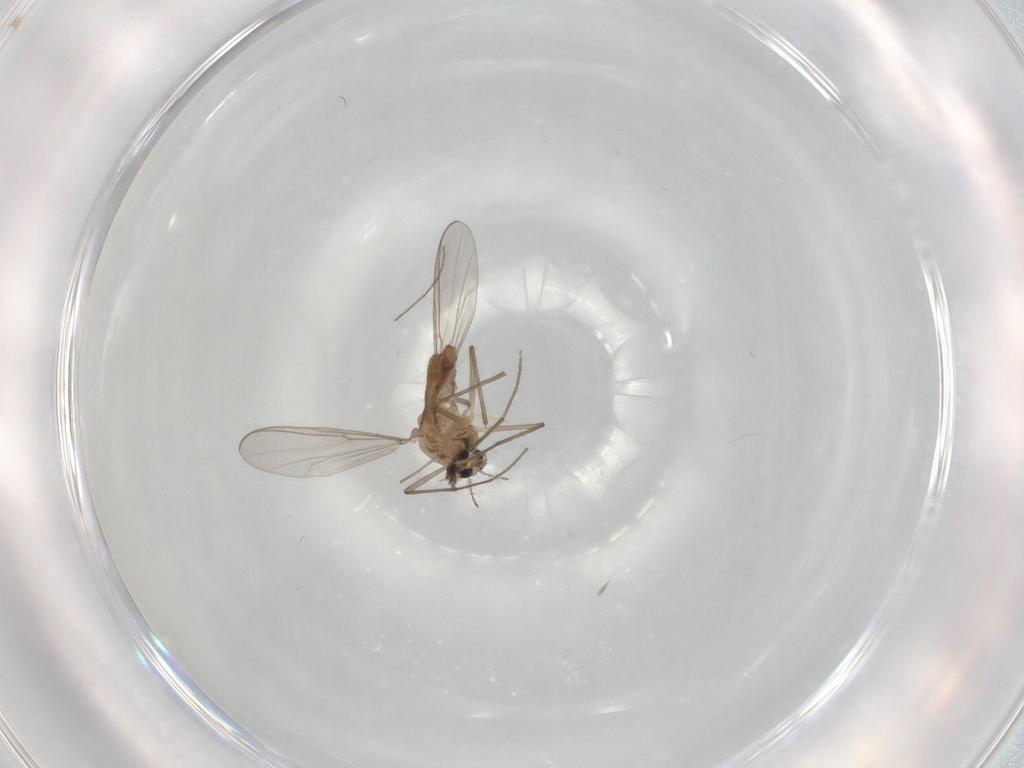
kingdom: Animalia
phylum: Arthropoda
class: Insecta
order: Diptera
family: Chironomidae
